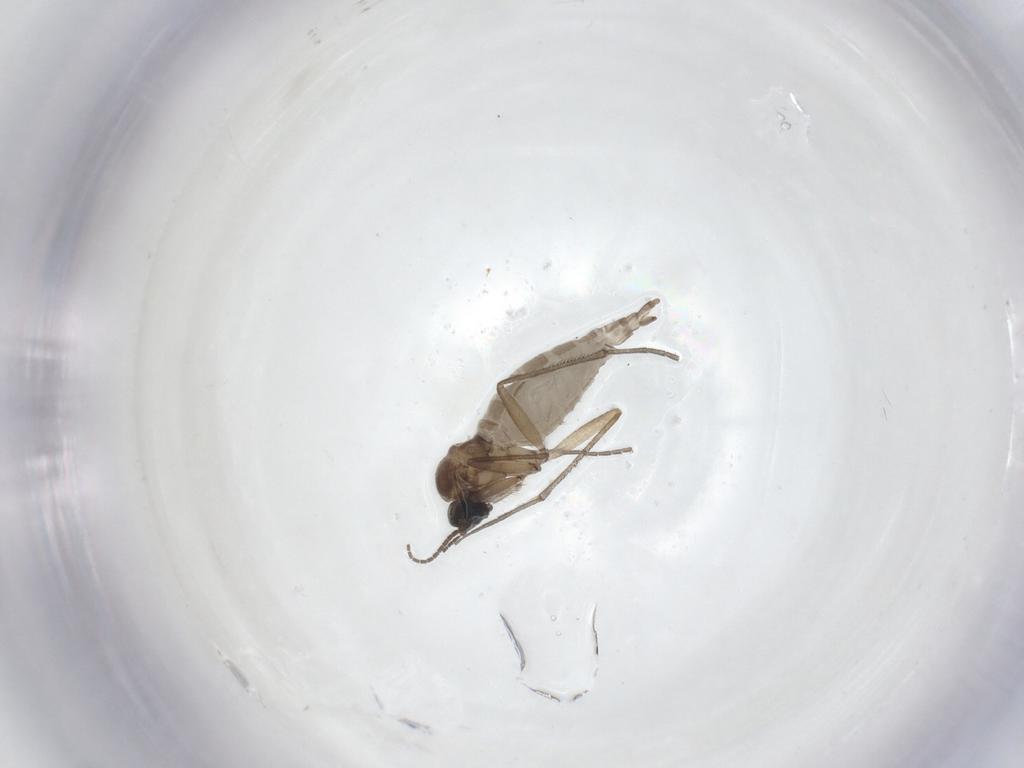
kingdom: Animalia
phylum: Arthropoda
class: Insecta
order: Diptera
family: Sciaridae
